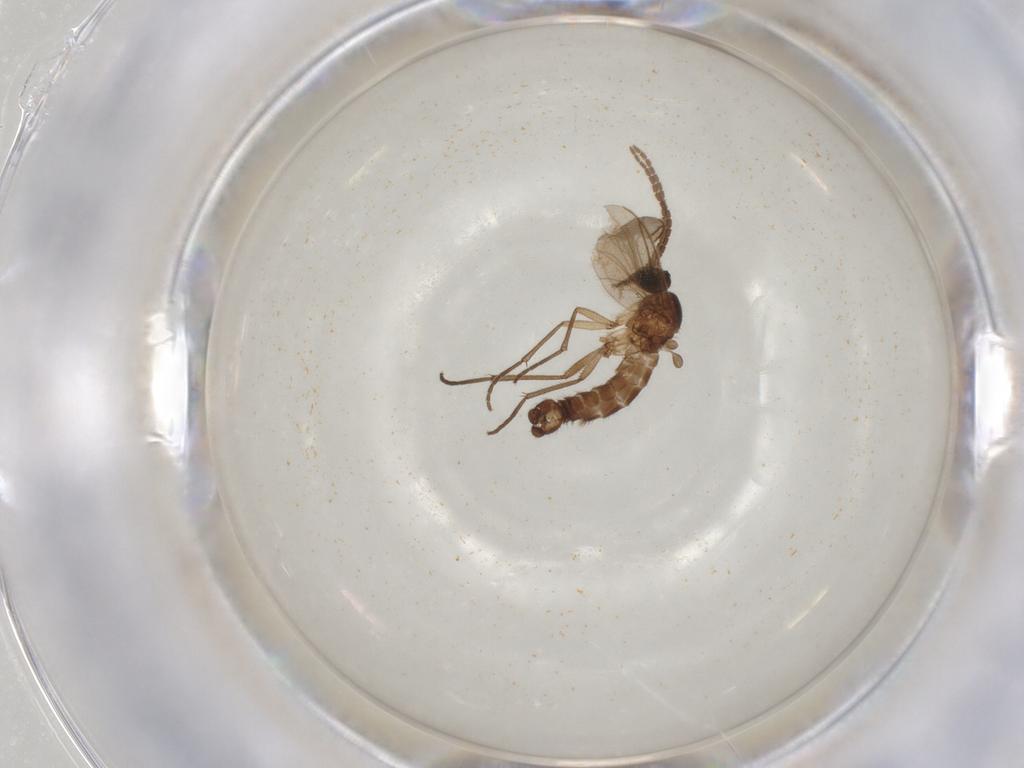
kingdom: Animalia
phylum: Arthropoda
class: Insecta
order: Diptera
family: Sciaridae
